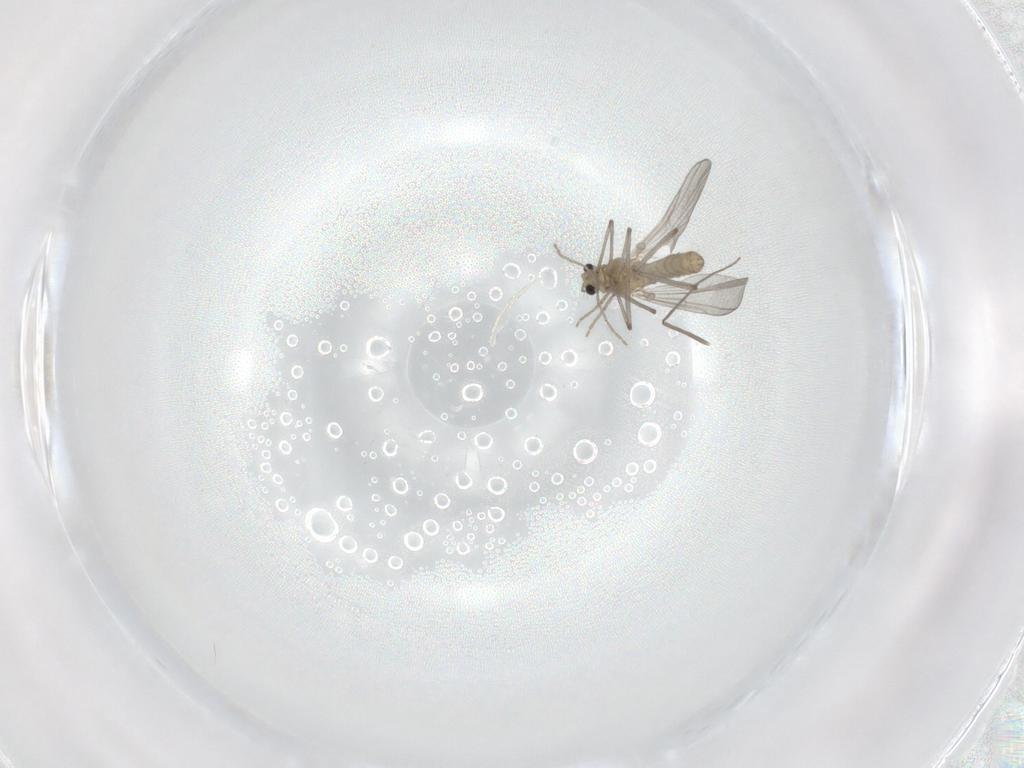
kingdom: Animalia
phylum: Arthropoda
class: Insecta
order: Diptera
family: Chironomidae
